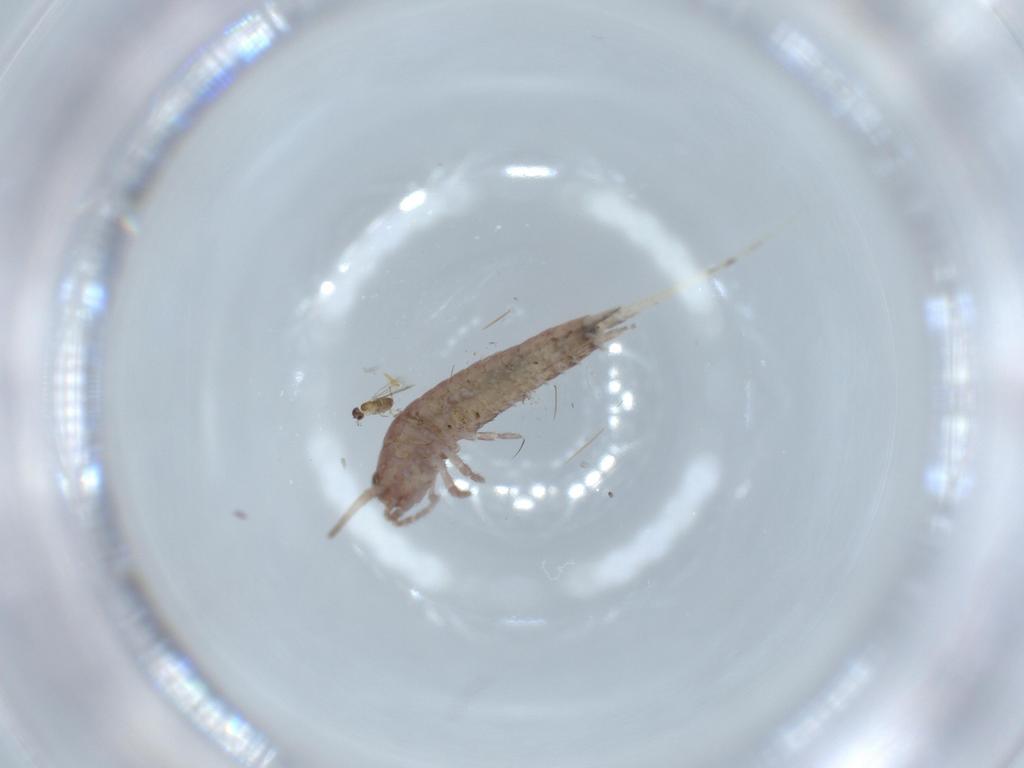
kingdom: Animalia
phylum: Arthropoda
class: Insecta
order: Archaeognatha
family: Machilidae
